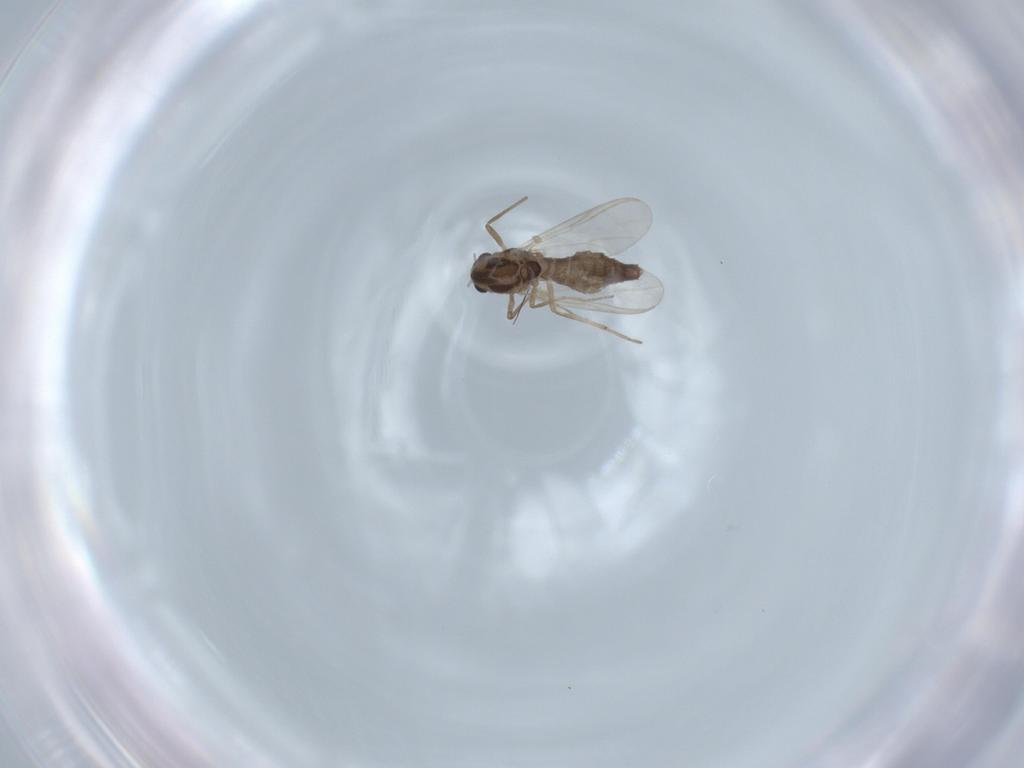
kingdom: Animalia
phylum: Arthropoda
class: Insecta
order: Diptera
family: Chironomidae
